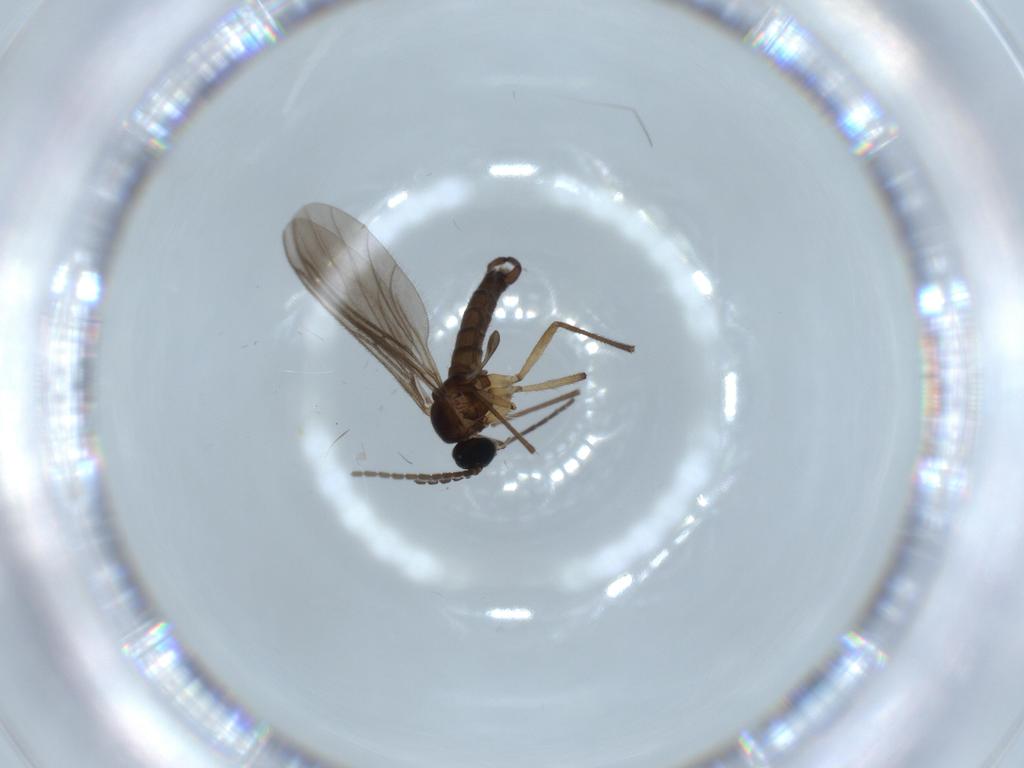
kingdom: Animalia
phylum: Arthropoda
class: Insecta
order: Diptera
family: Sciaridae
